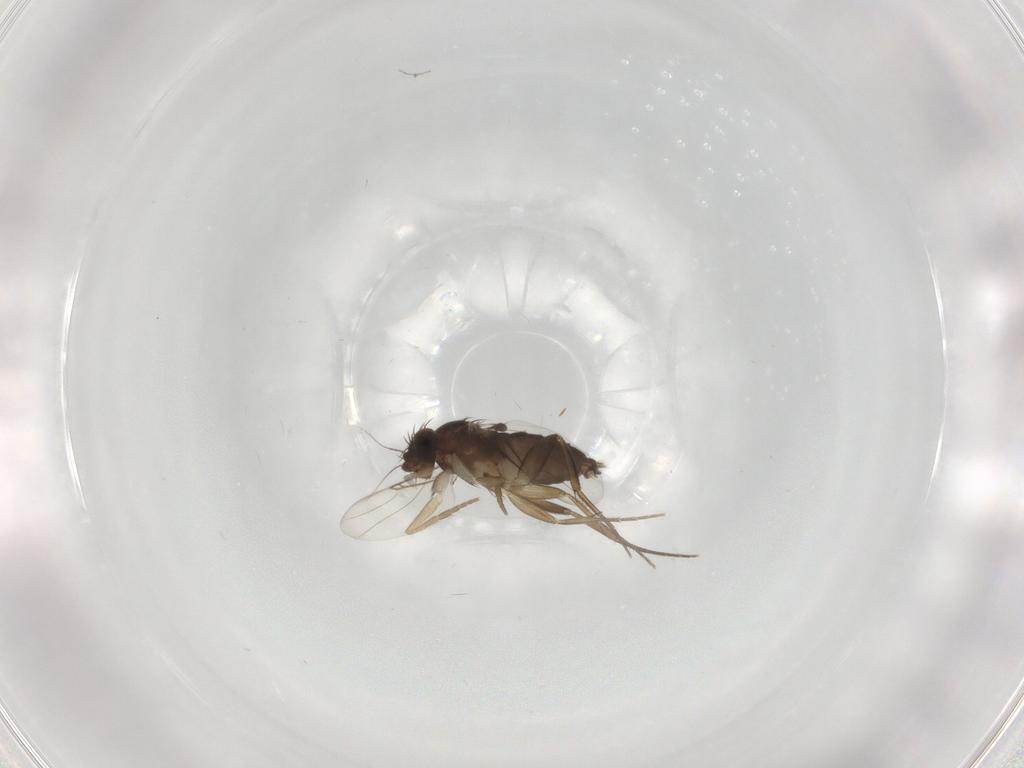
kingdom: Animalia
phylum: Arthropoda
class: Insecta
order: Diptera
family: Phoridae
